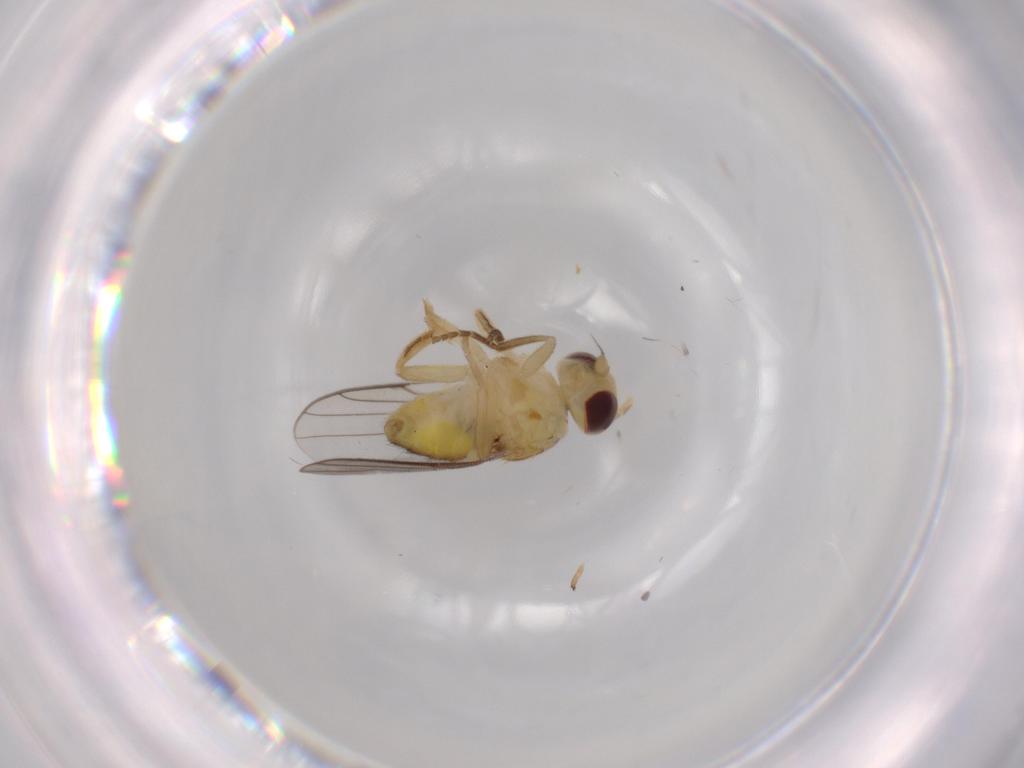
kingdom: Animalia
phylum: Arthropoda
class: Insecta
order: Diptera
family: Chloropidae
